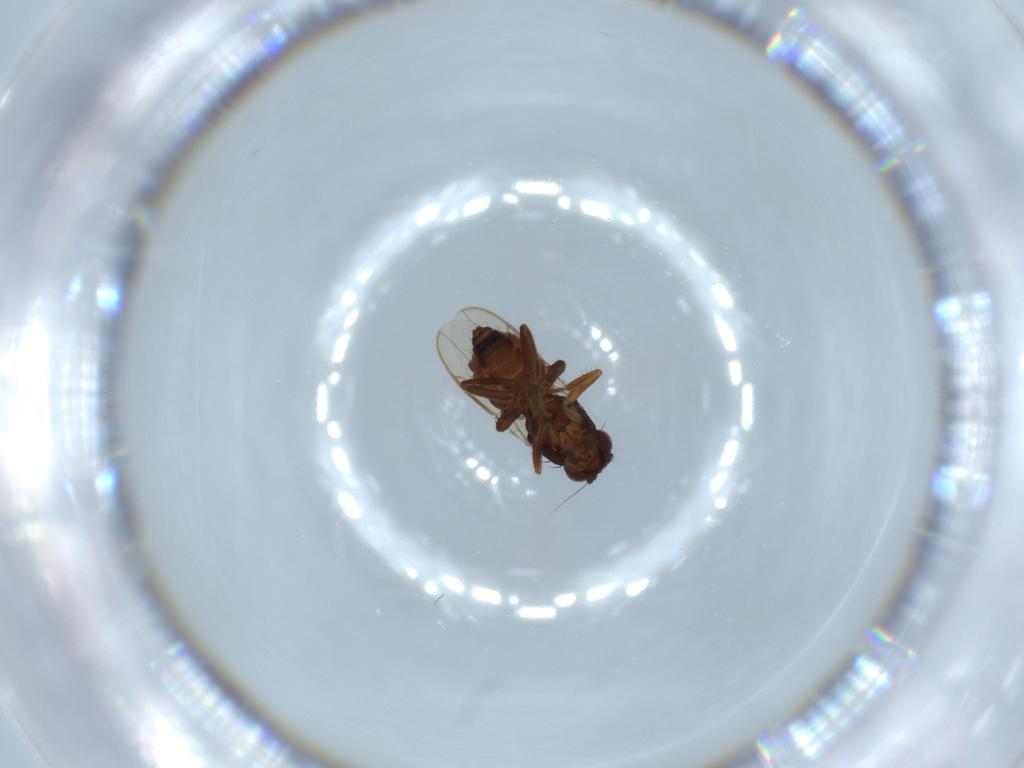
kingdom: Animalia
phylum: Arthropoda
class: Insecta
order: Diptera
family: Sphaeroceridae
